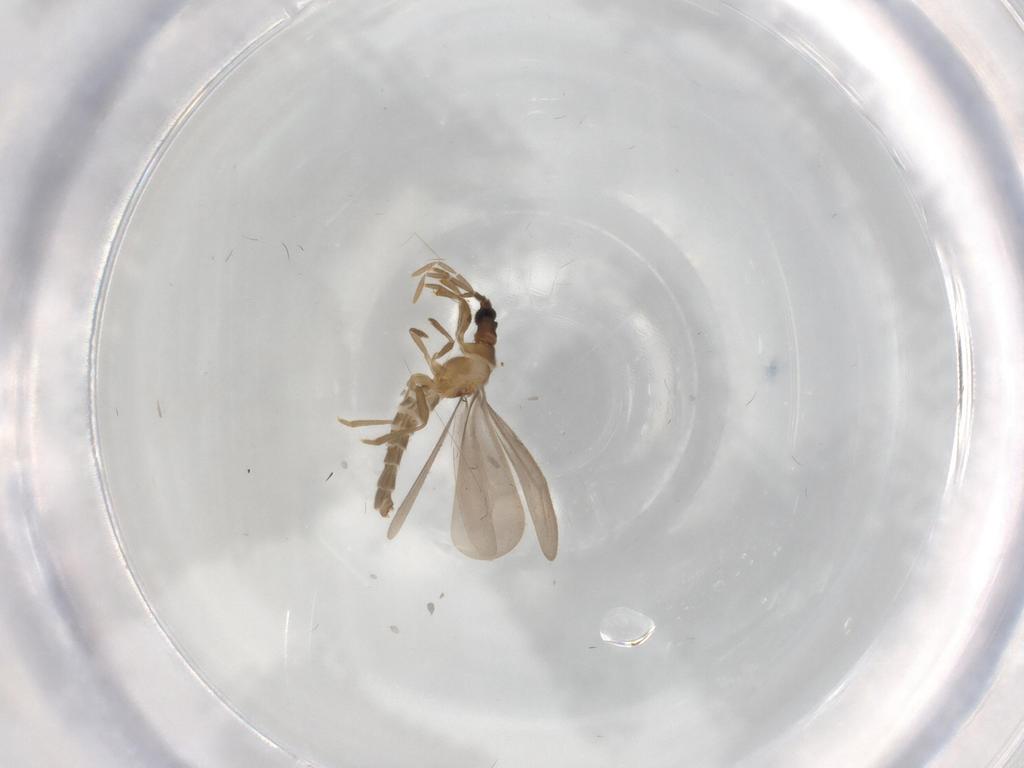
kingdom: Animalia
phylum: Arthropoda
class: Insecta
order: Hemiptera
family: Enicocephalidae
